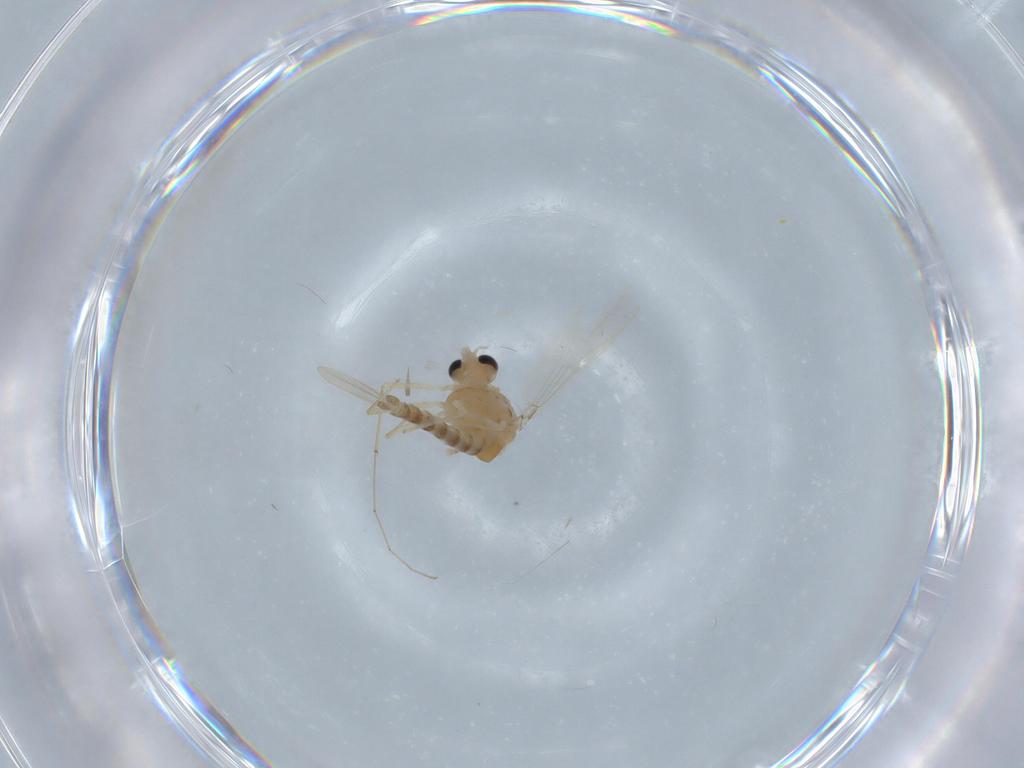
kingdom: Animalia
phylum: Arthropoda
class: Insecta
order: Diptera
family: Chironomidae
